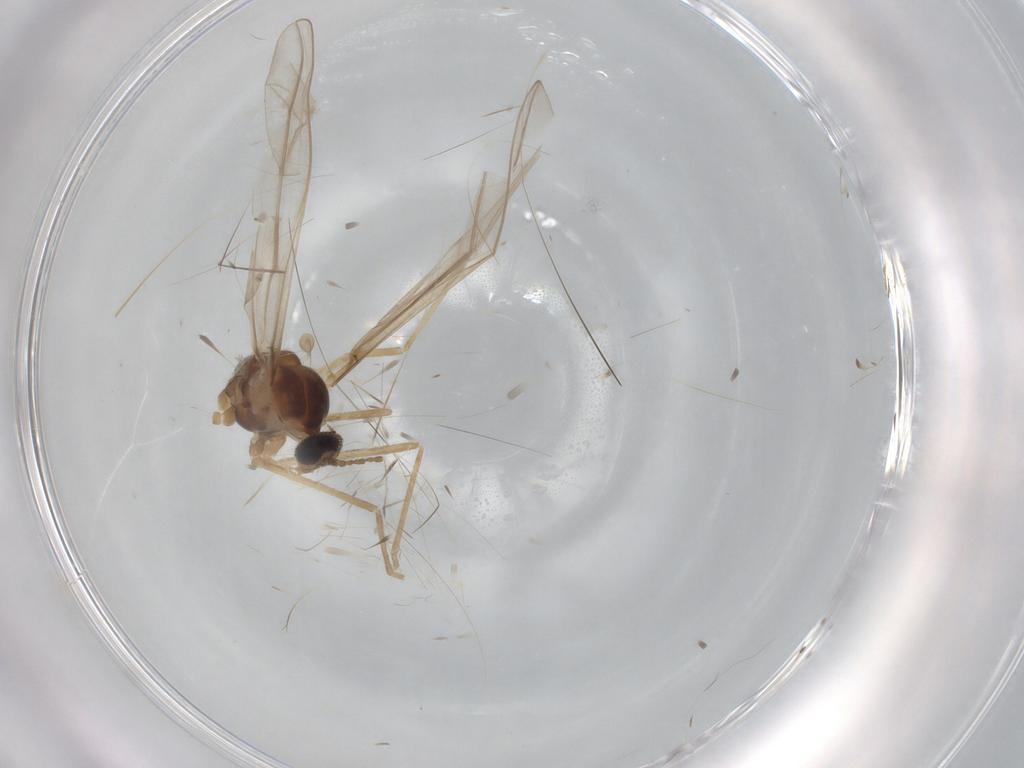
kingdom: Animalia
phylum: Arthropoda
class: Insecta
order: Diptera
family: Cecidomyiidae
